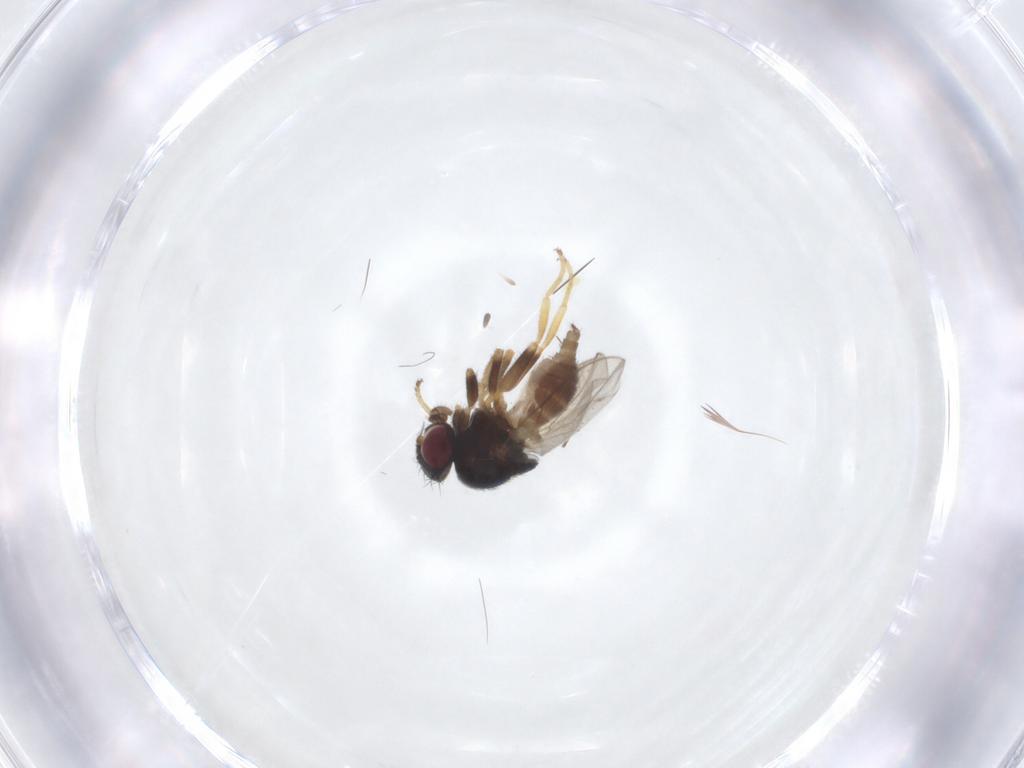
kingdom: Animalia
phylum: Arthropoda
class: Insecta
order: Diptera
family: Chloropidae
